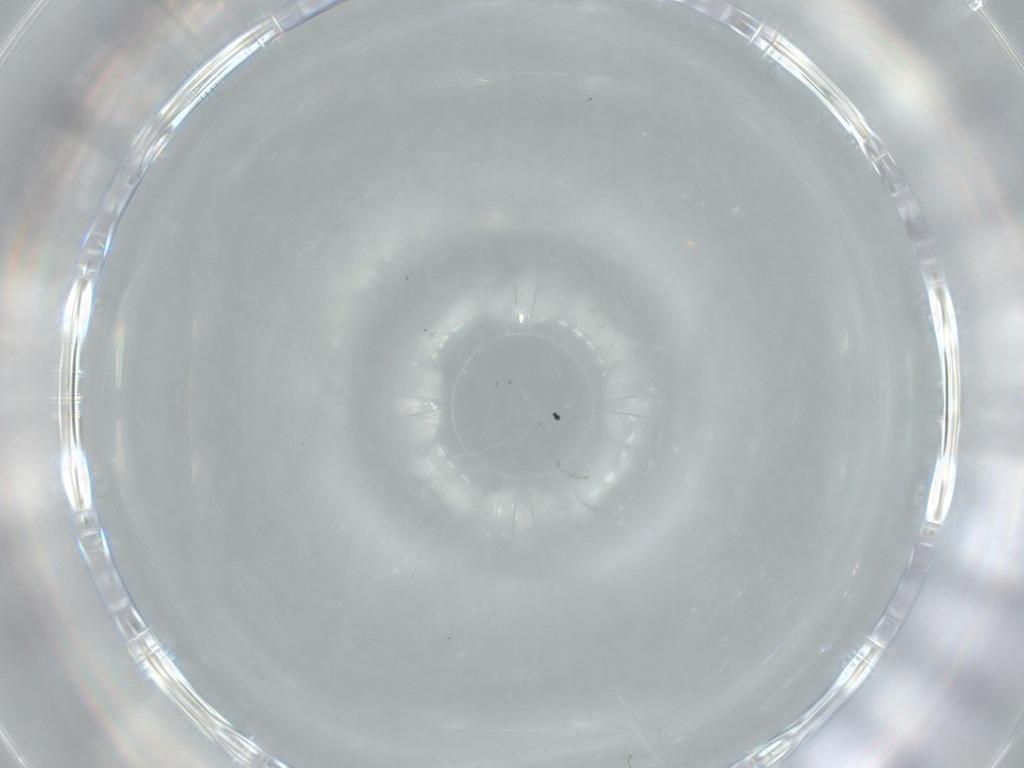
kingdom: Animalia
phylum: Arthropoda
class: Insecta
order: Diptera
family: Cecidomyiidae
